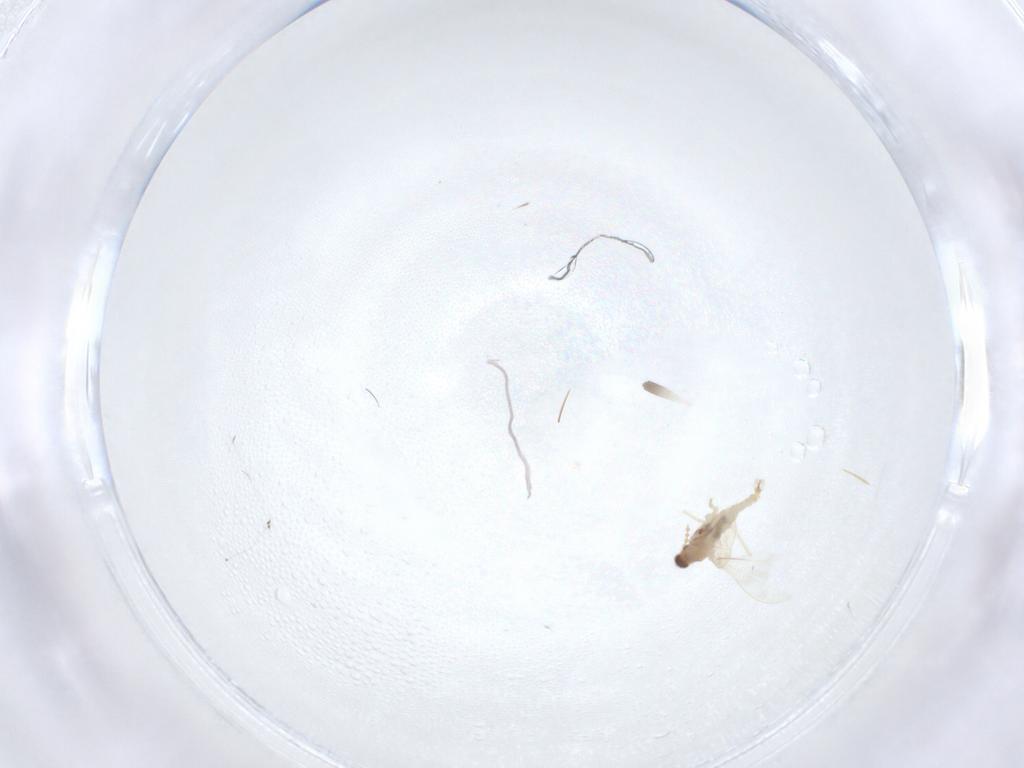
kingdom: Animalia
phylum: Arthropoda
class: Insecta
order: Diptera
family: Cecidomyiidae
